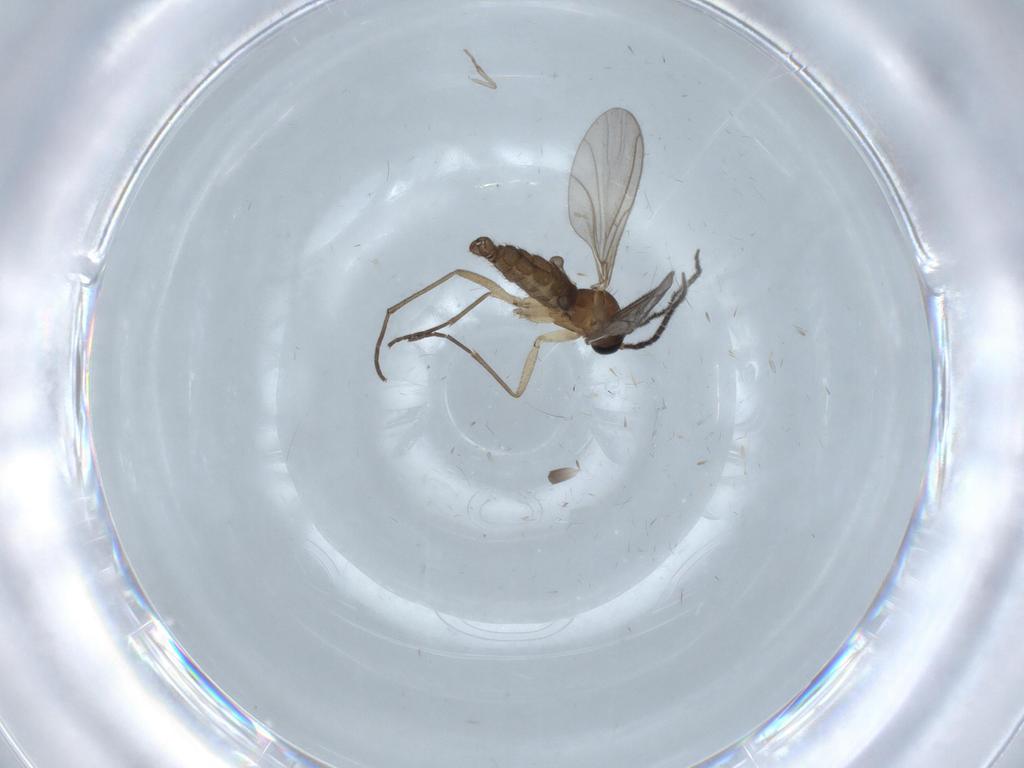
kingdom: Animalia
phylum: Arthropoda
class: Insecta
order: Diptera
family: Sciaridae
